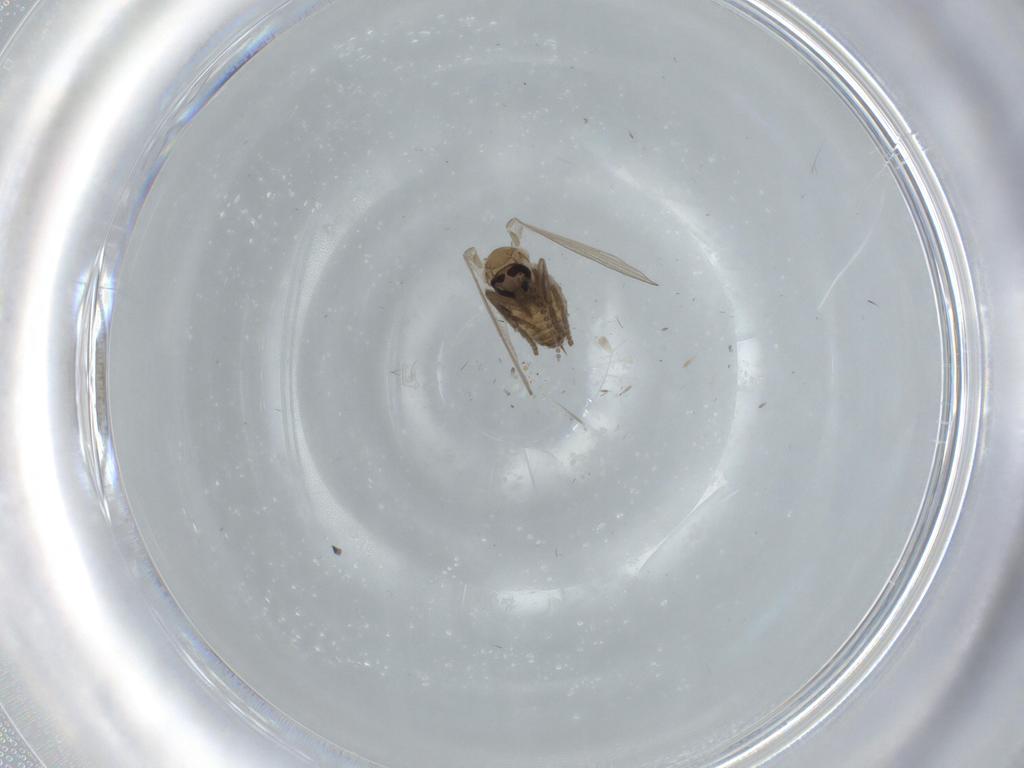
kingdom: Animalia
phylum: Arthropoda
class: Insecta
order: Diptera
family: Psychodidae
